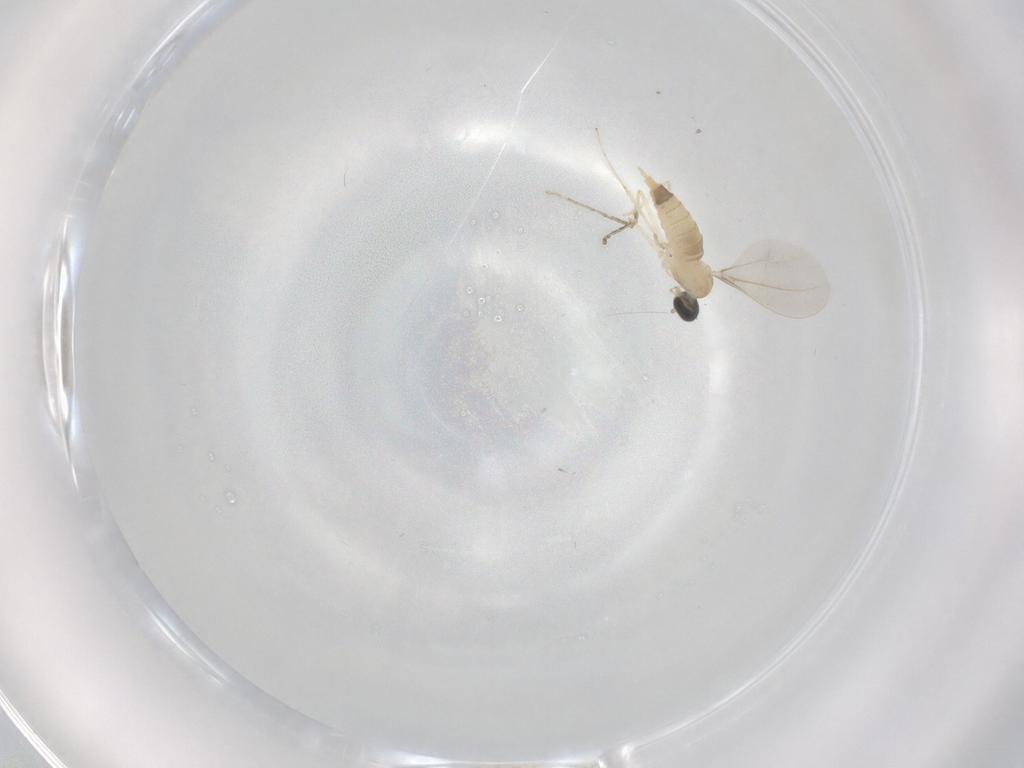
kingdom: Animalia
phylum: Arthropoda
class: Insecta
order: Diptera
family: Cecidomyiidae
